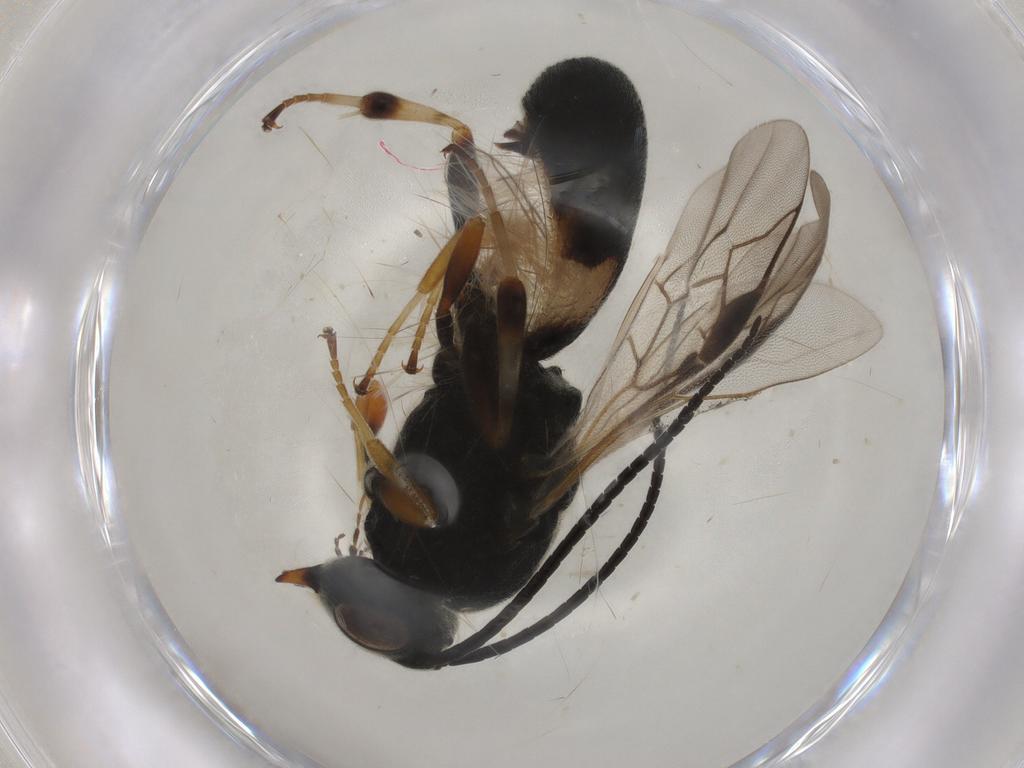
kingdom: Animalia
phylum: Arthropoda
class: Insecta
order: Hymenoptera
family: Braconidae
